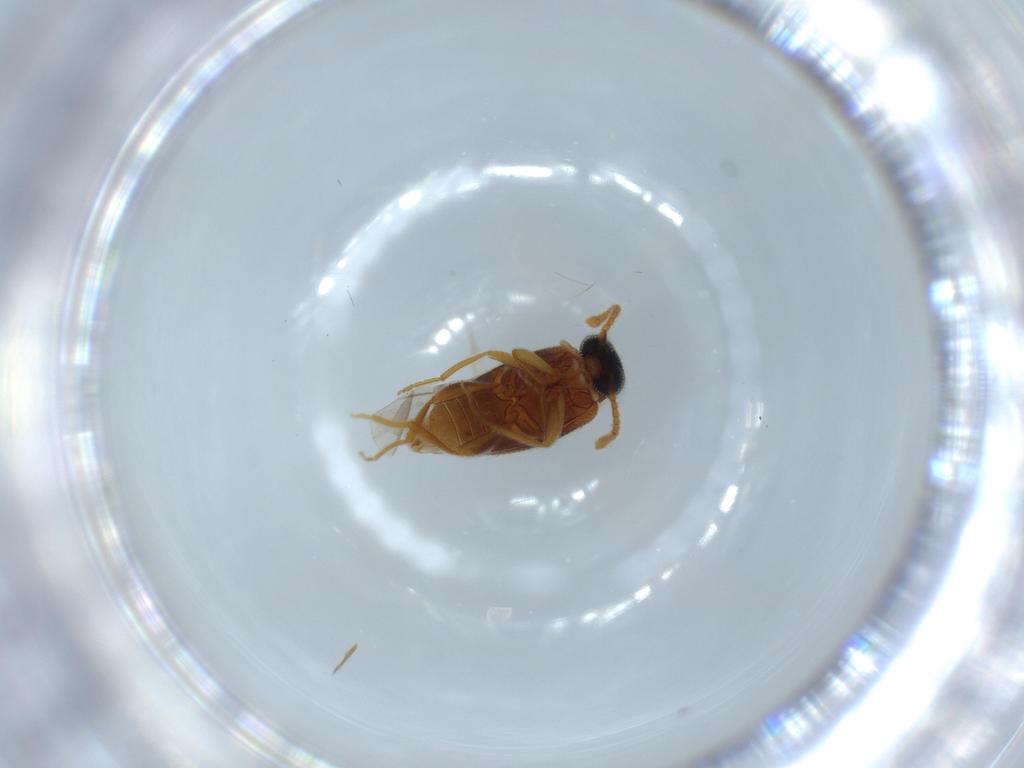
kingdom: Animalia
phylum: Arthropoda
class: Insecta
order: Coleoptera
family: Aderidae
